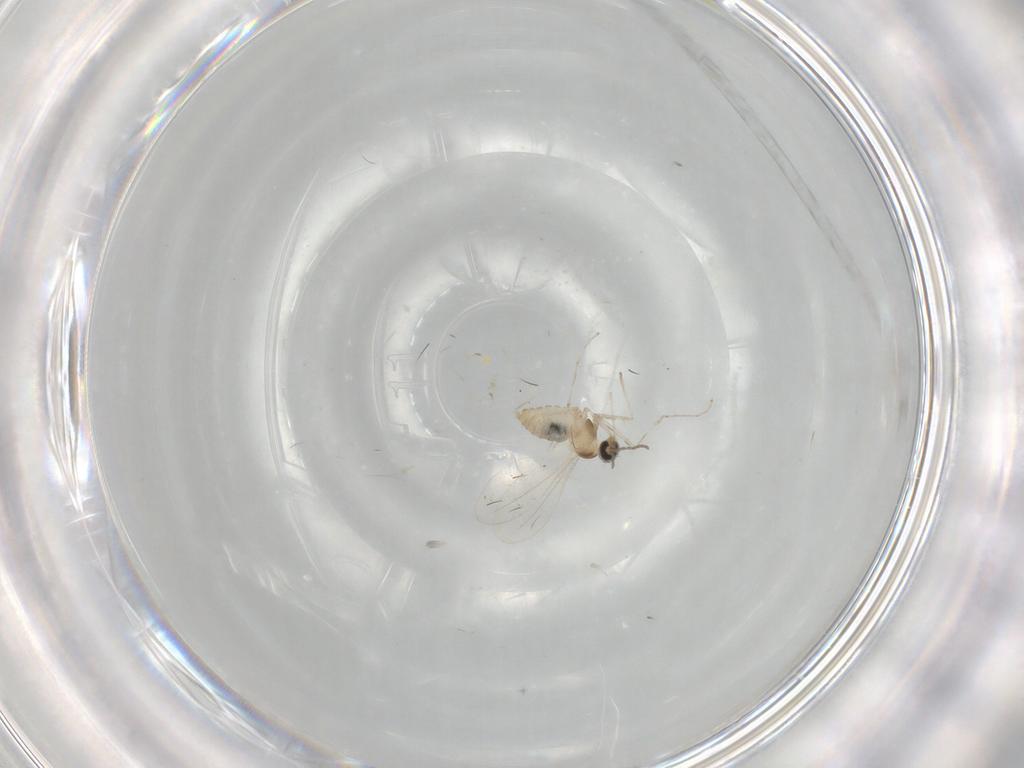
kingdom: Animalia
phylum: Arthropoda
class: Insecta
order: Diptera
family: Cecidomyiidae
